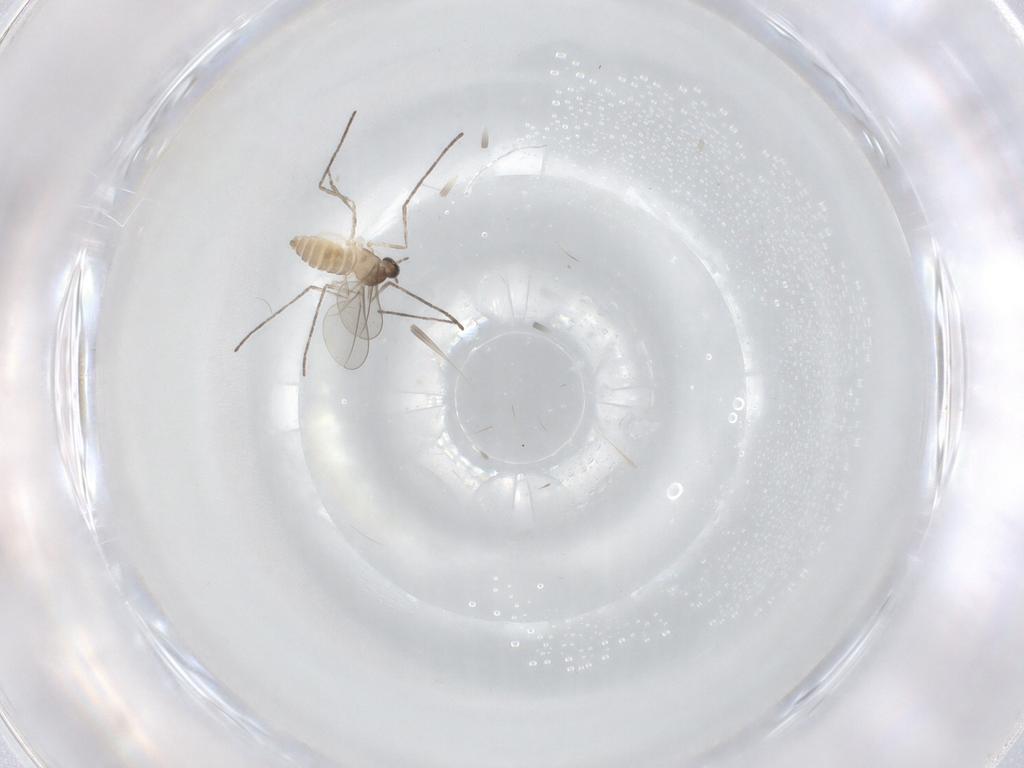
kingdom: Animalia
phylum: Arthropoda
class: Insecta
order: Diptera
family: Cecidomyiidae
